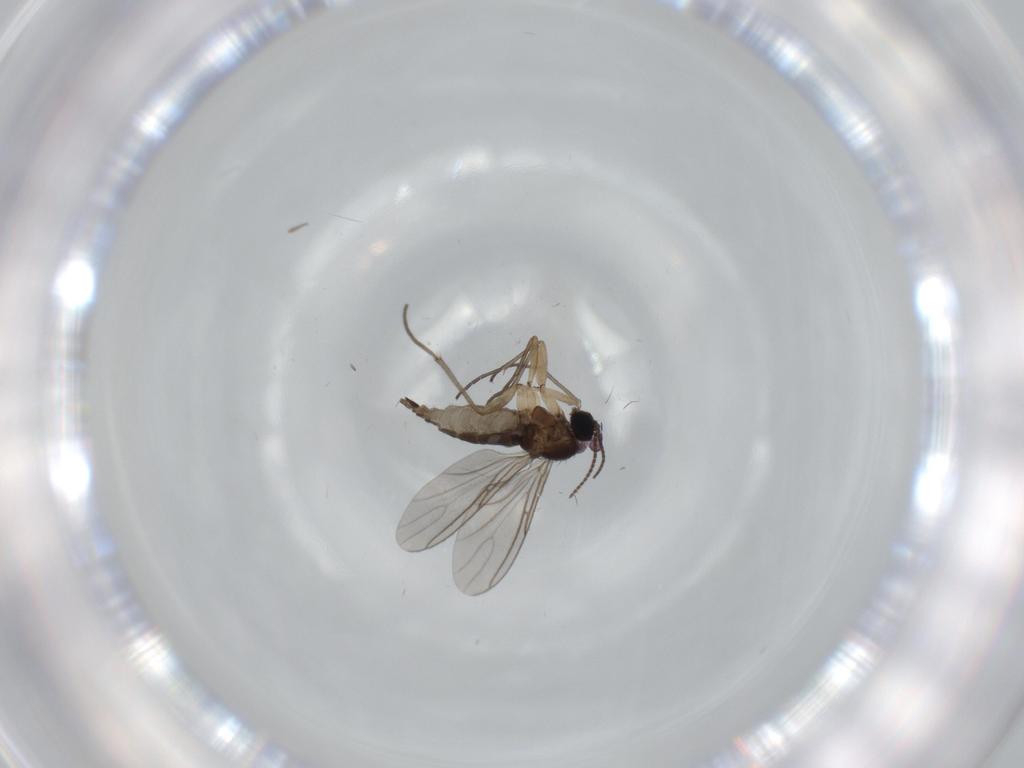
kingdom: Animalia
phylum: Arthropoda
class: Insecta
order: Diptera
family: Sciaridae
